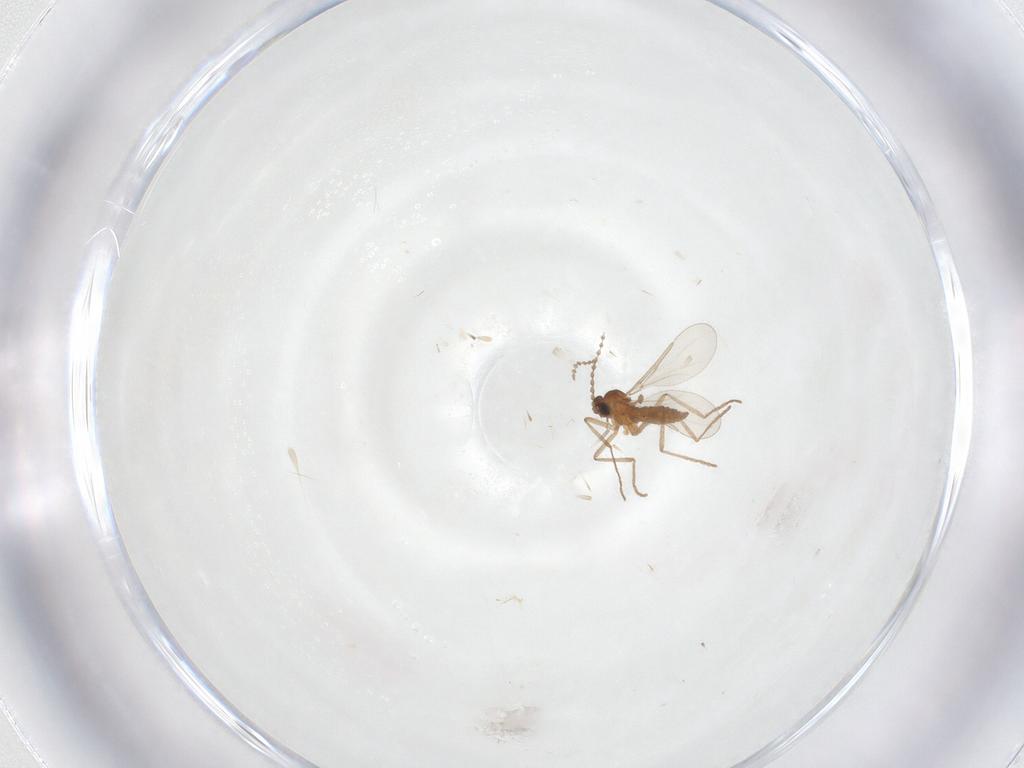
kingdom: Animalia
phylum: Arthropoda
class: Insecta
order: Diptera
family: Cecidomyiidae
